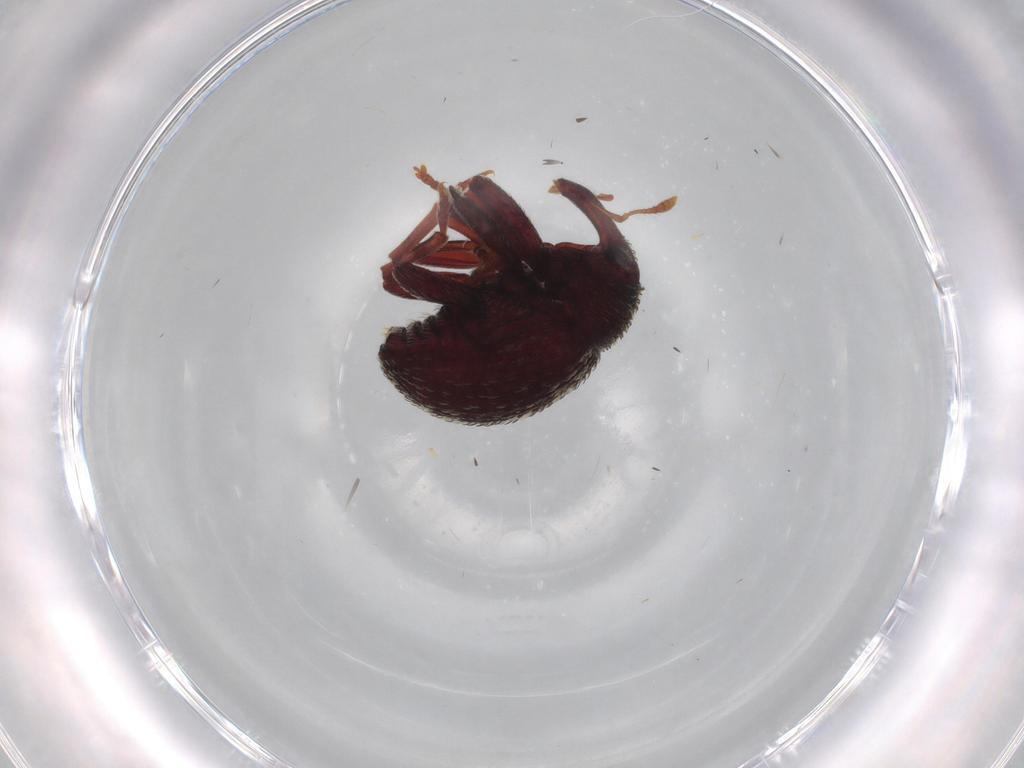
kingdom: Animalia
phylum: Arthropoda
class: Insecta
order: Coleoptera
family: Curculionidae
